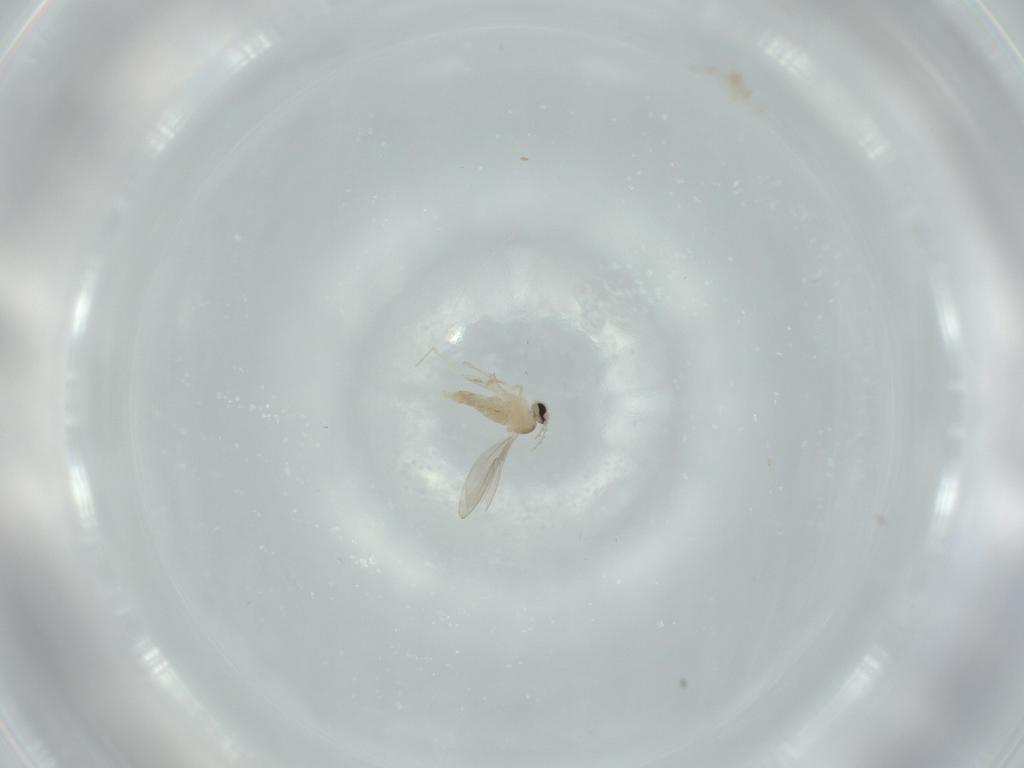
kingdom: Animalia
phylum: Arthropoda
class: Insecta
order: Diptera
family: Cecidomyiidae
